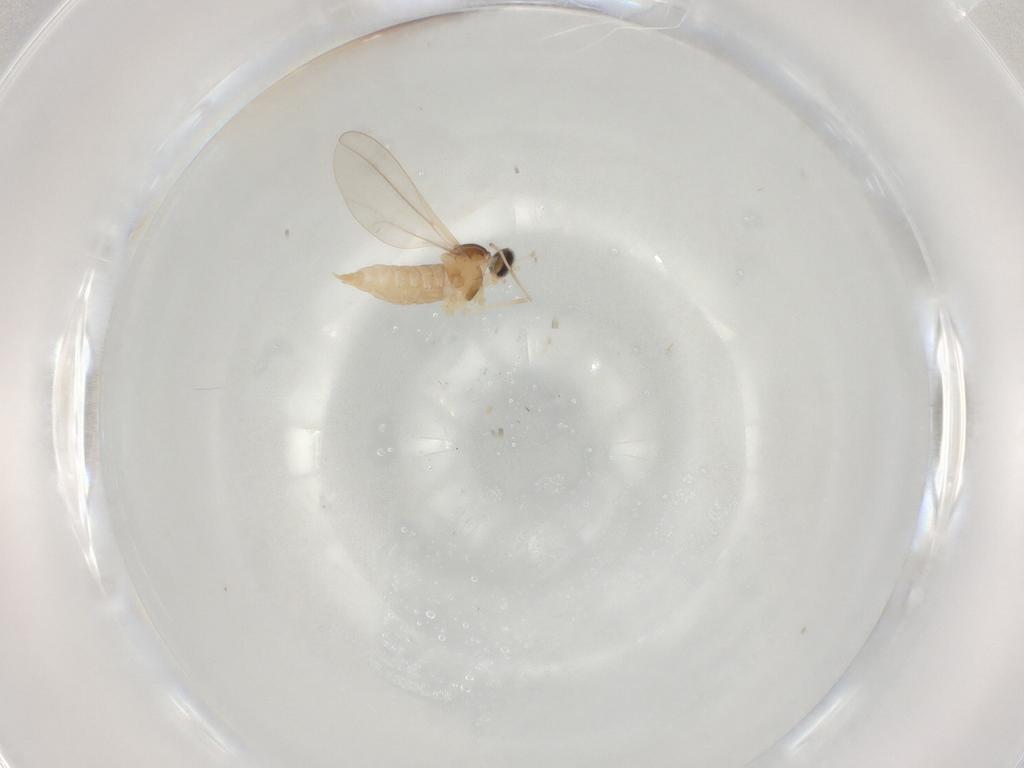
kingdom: Animalia
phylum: Arthropoda
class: Insecta
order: Diptera
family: Cecidomyiidae
